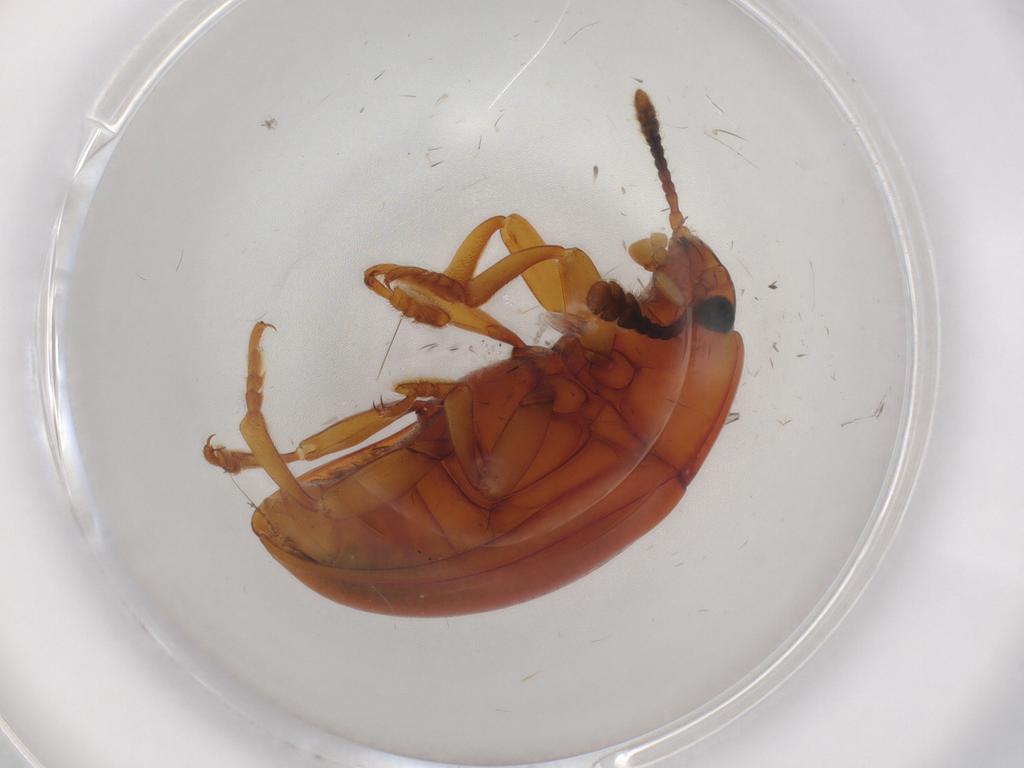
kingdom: Animalia
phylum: Arthropoda
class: Insecta
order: Coleoptera
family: Erotylidae
